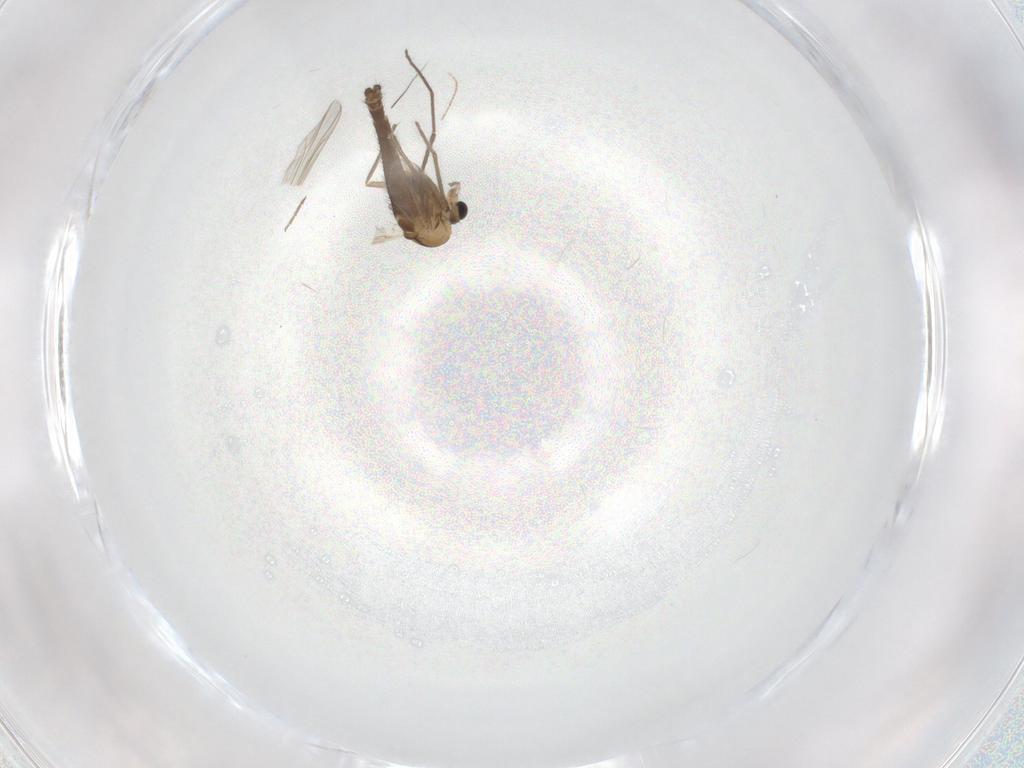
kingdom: Animalia
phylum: Arthropoda
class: Insecta
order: Diptera
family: Chironomidae
